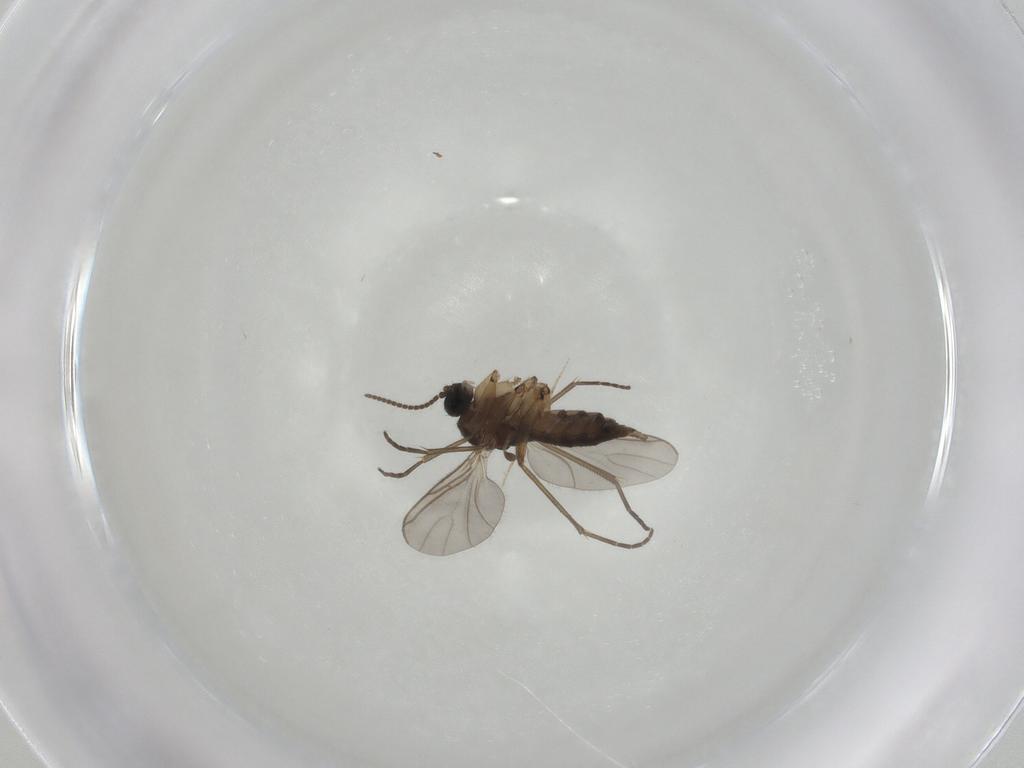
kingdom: Animalia
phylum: Arthropoda
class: Insecta
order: Diptera
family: Sciaridae
